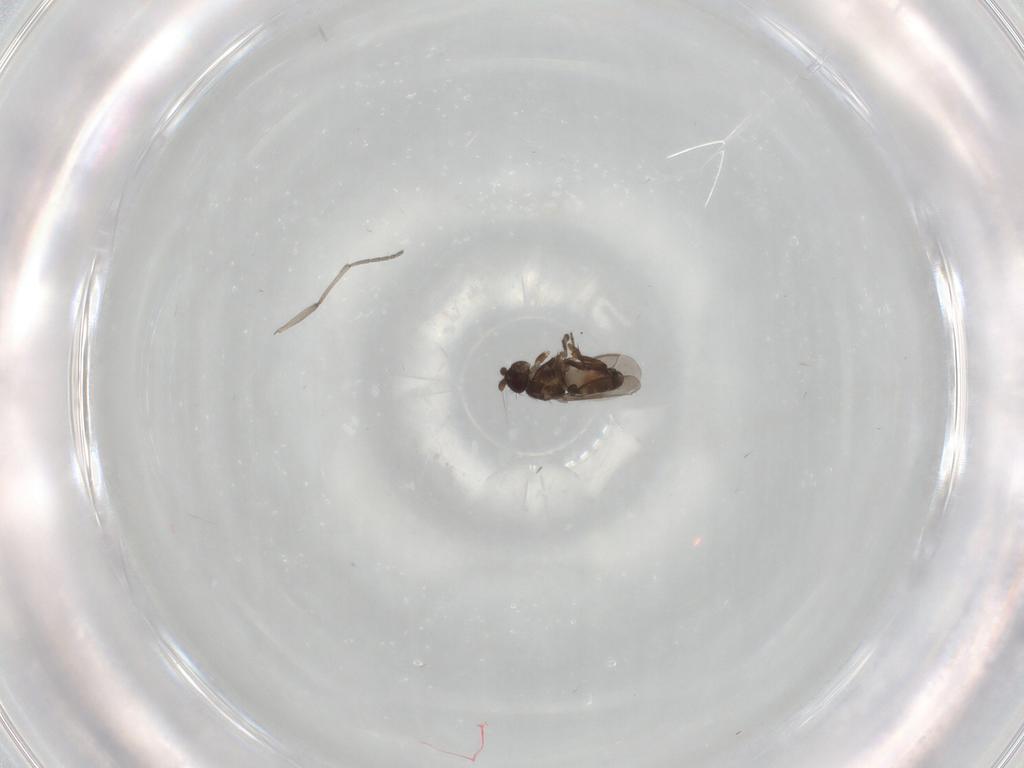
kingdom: Animalia
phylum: Arthropoda
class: Insecta
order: Diptera
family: Sphaeroceridae
